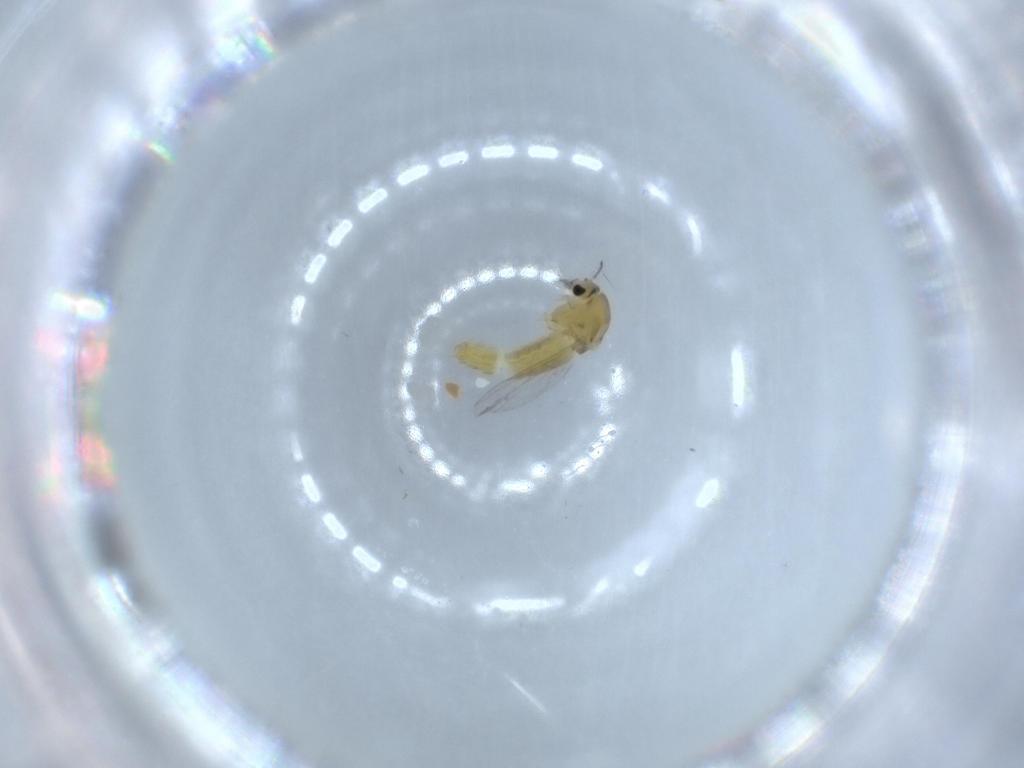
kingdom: Animalia
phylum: Arthropoda
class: Insecta
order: Diptera
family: Chironomidae
